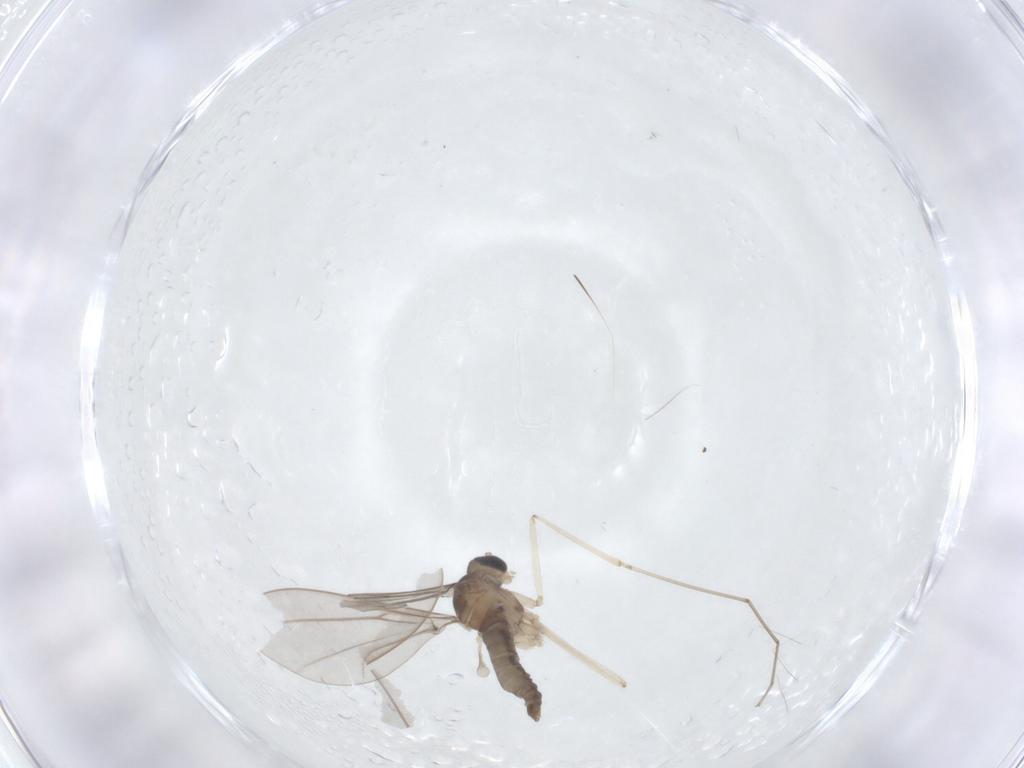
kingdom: Animalia
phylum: Arthropoda
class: Insecta
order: Diptera
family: Cecidomyiidae
